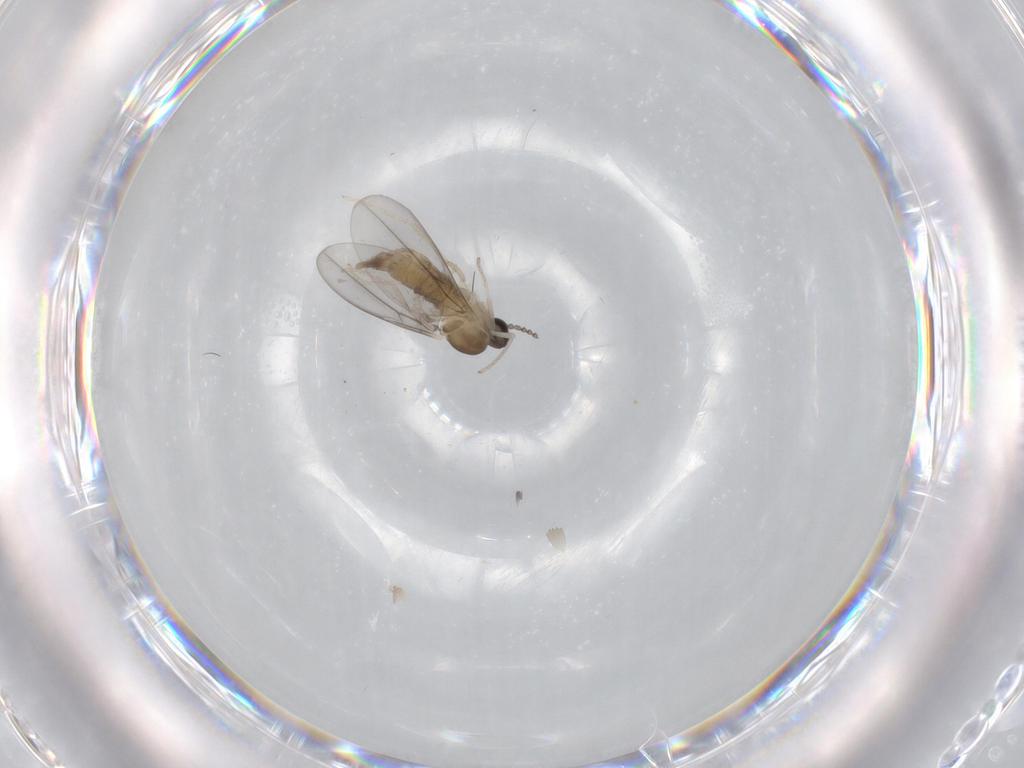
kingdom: Animalia
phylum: Arthropoda
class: Insecta
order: Diptera
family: Cecidomyiidae
